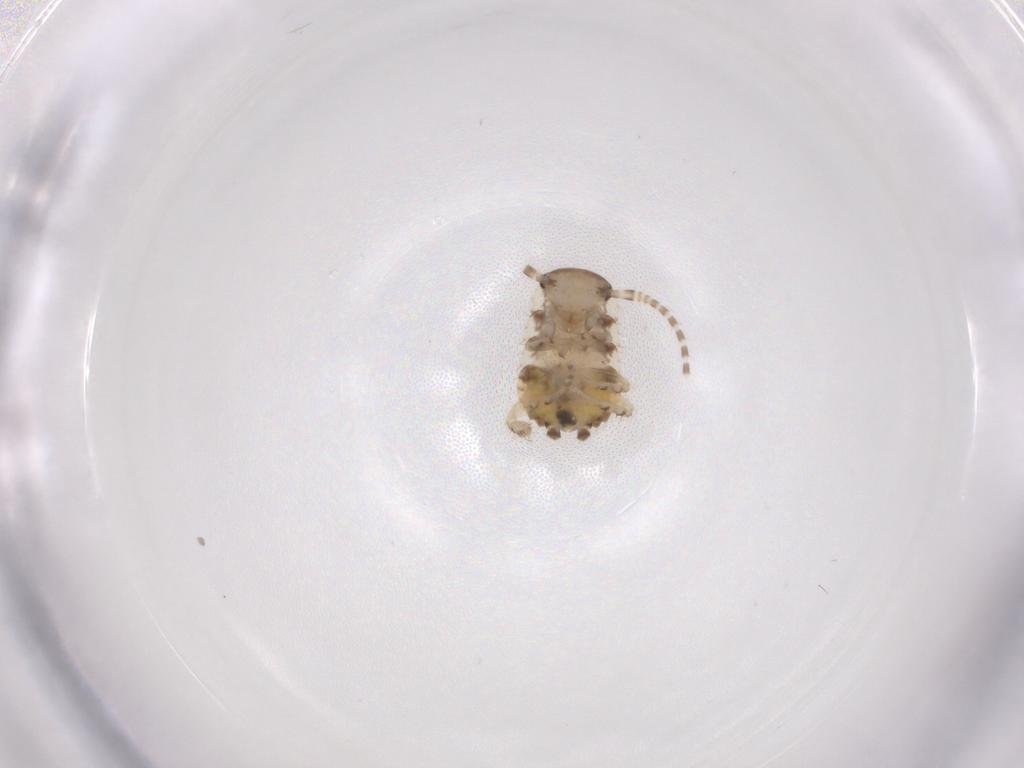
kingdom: Animalia
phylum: Arthropoda
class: Insecta
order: Blattodea
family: Ectobiidae
